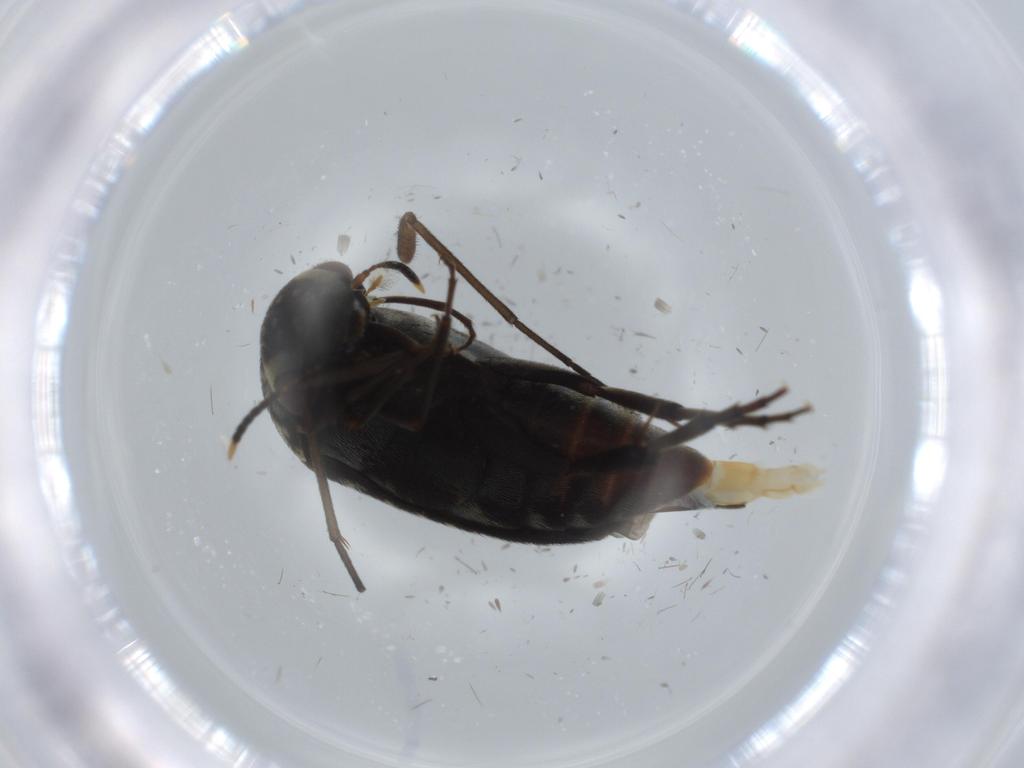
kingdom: Animalia
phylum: Arthropoda
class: Insecta
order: Coleoptera
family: Mordellidae
